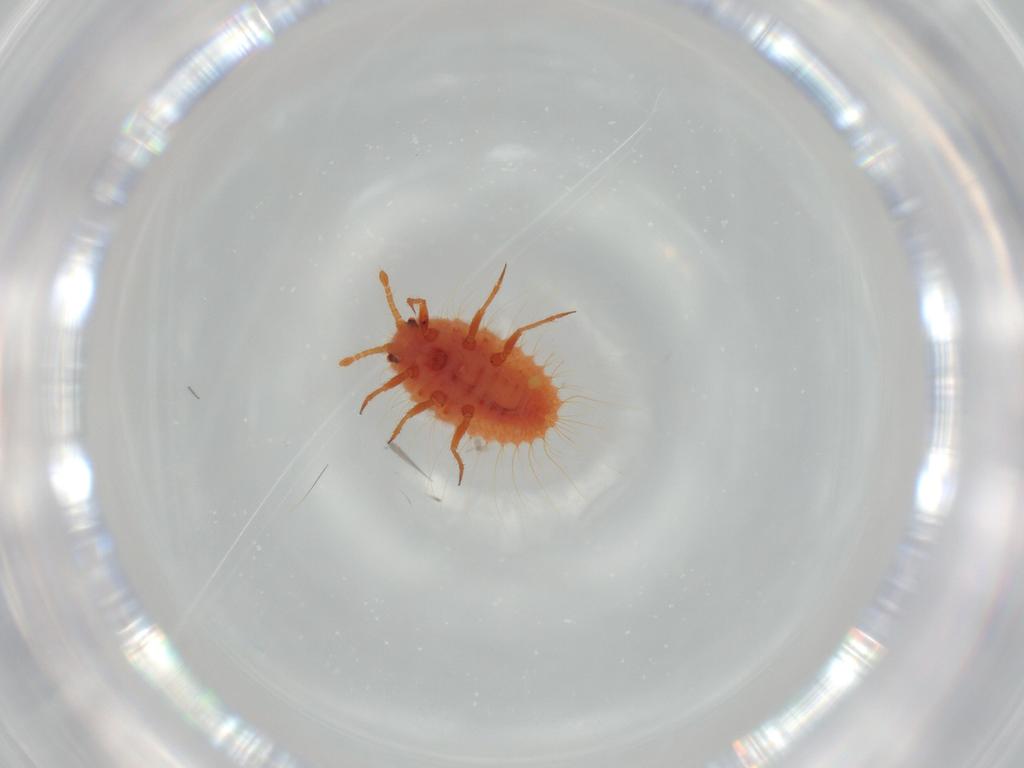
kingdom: Animalia
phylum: Arthropoda
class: Insecta
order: Hemiptera
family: Coccoidea_incertae_sedis
